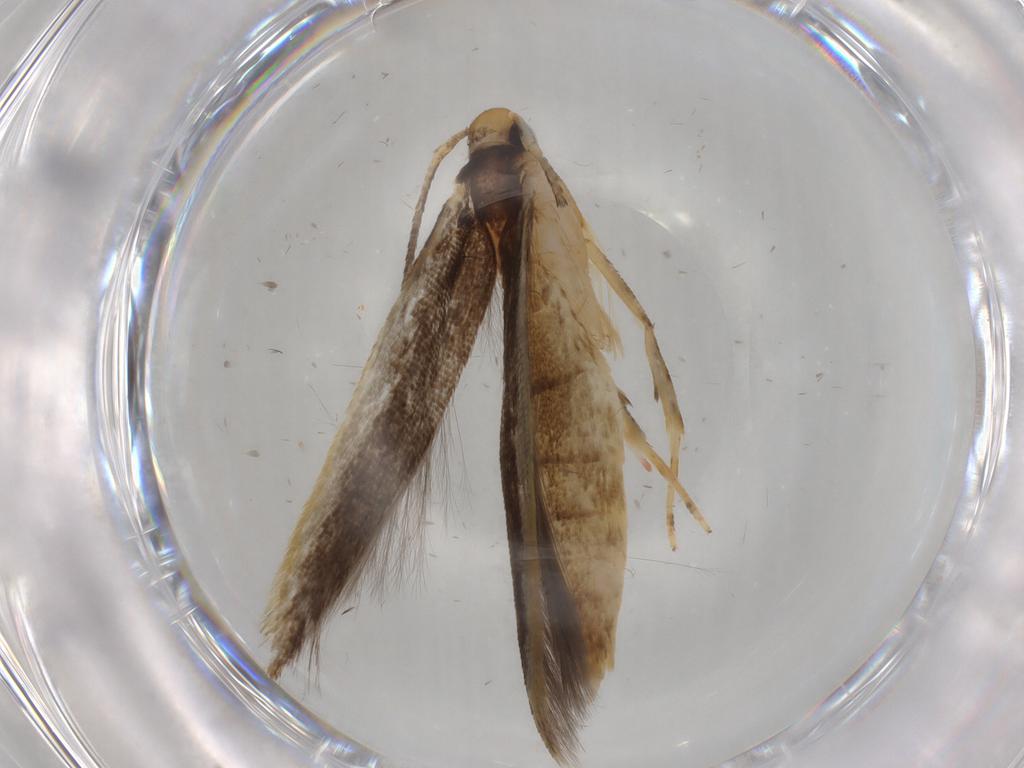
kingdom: Animalia
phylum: Arthropoda
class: Insecta
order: Lepidoptera
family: Pterolonchidae
